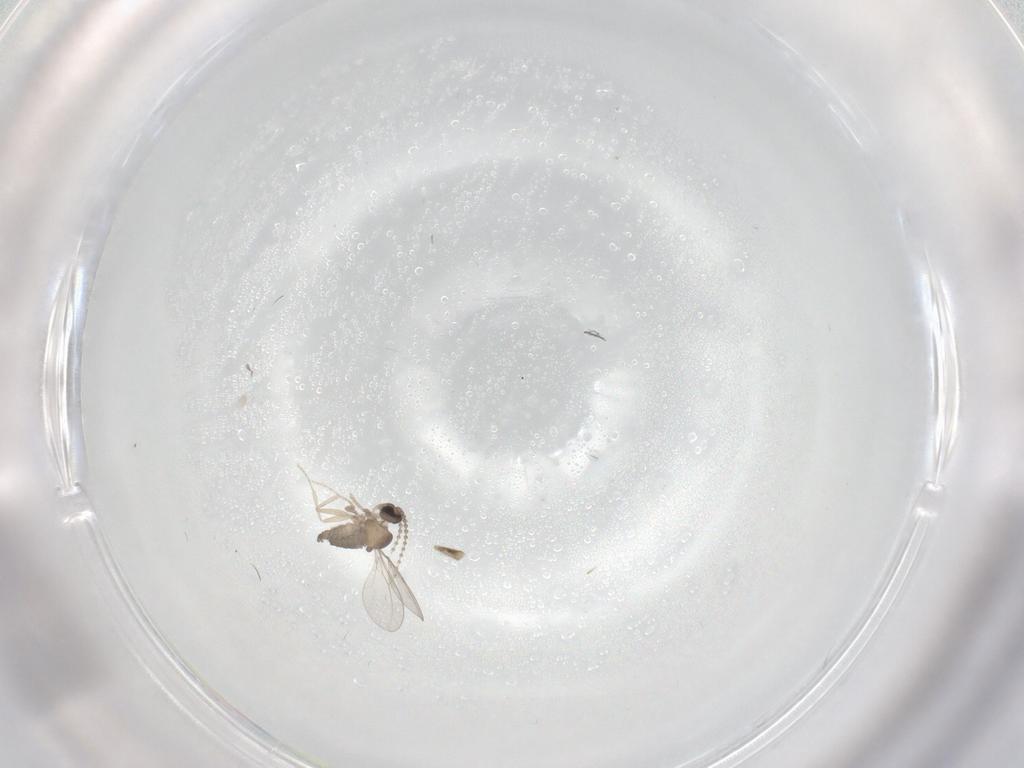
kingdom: Animalia
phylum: Arthropoda
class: Insecta
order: Diptera
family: Cecidomyiidae
